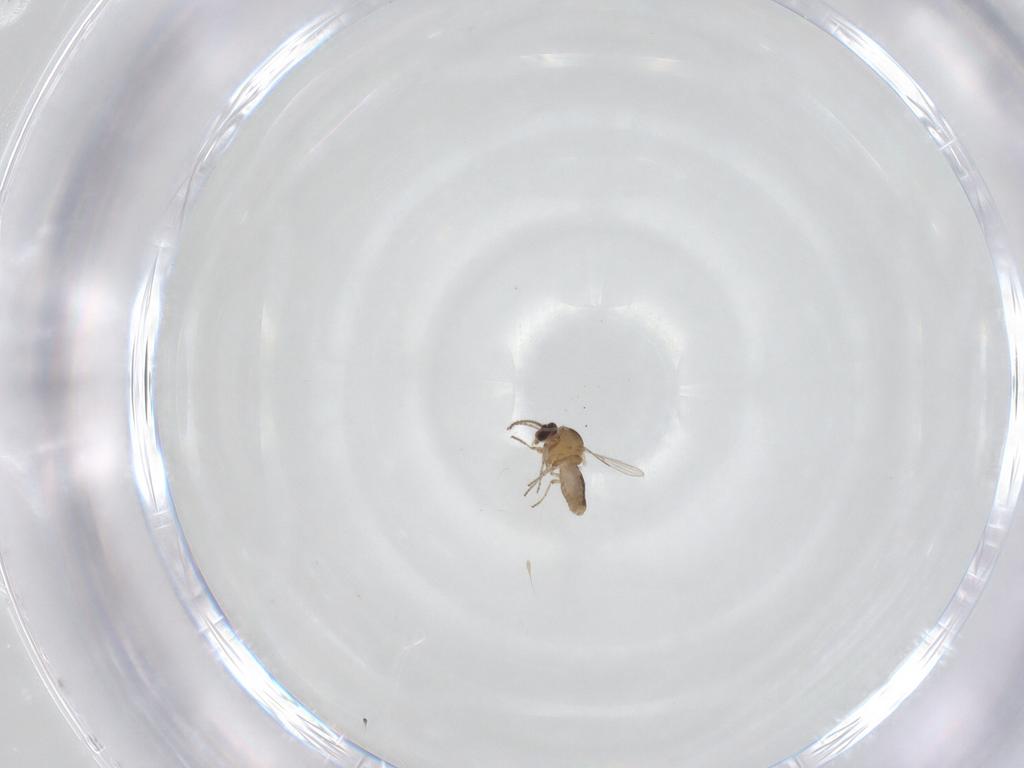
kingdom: Animalia
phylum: Arthropoda
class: Insecta
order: Diptera
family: Ceratopogonidae
